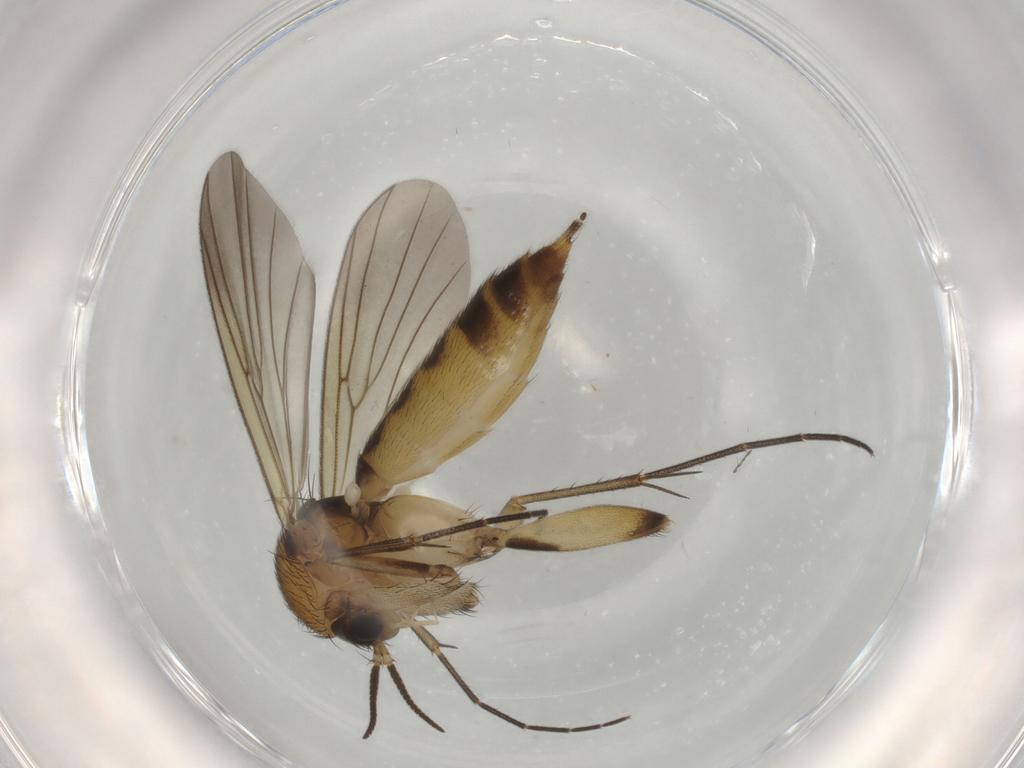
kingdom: Animalia
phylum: Arthropoda
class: Insecta
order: Diptera
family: Mycetophilidae
